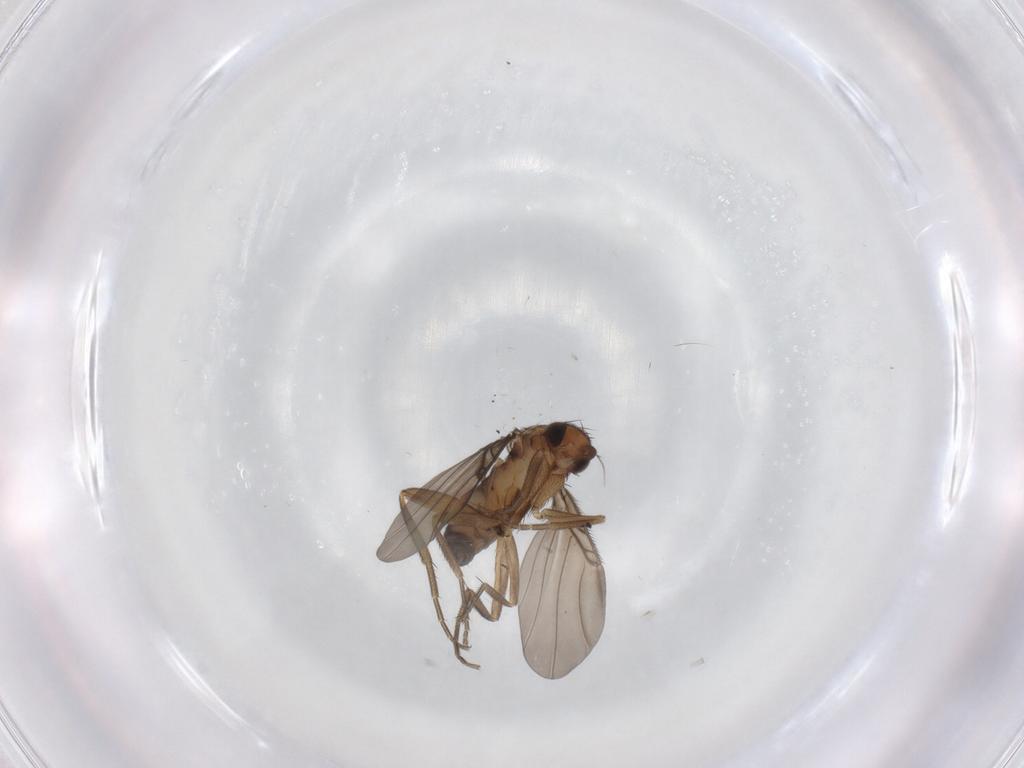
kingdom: Animalia
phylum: Arthropoda
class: Insecta
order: Diptera
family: Phoridae
